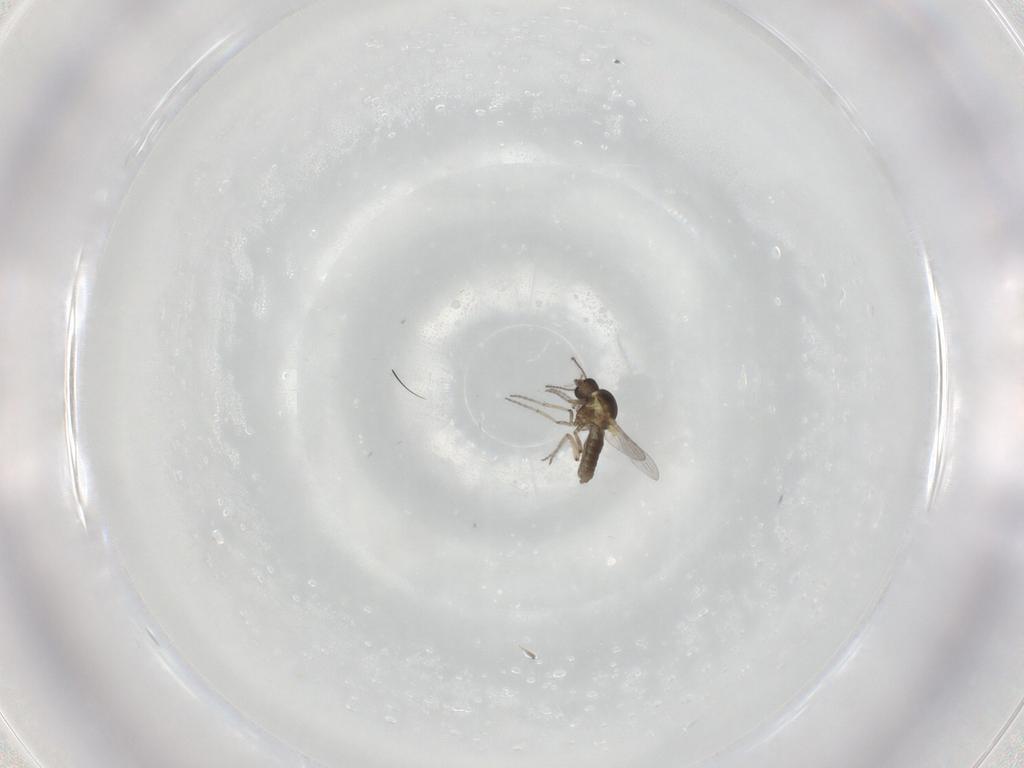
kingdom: Animalia
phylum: Arthropoda
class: Insecta
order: Diptera
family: Ceratopogonidae
